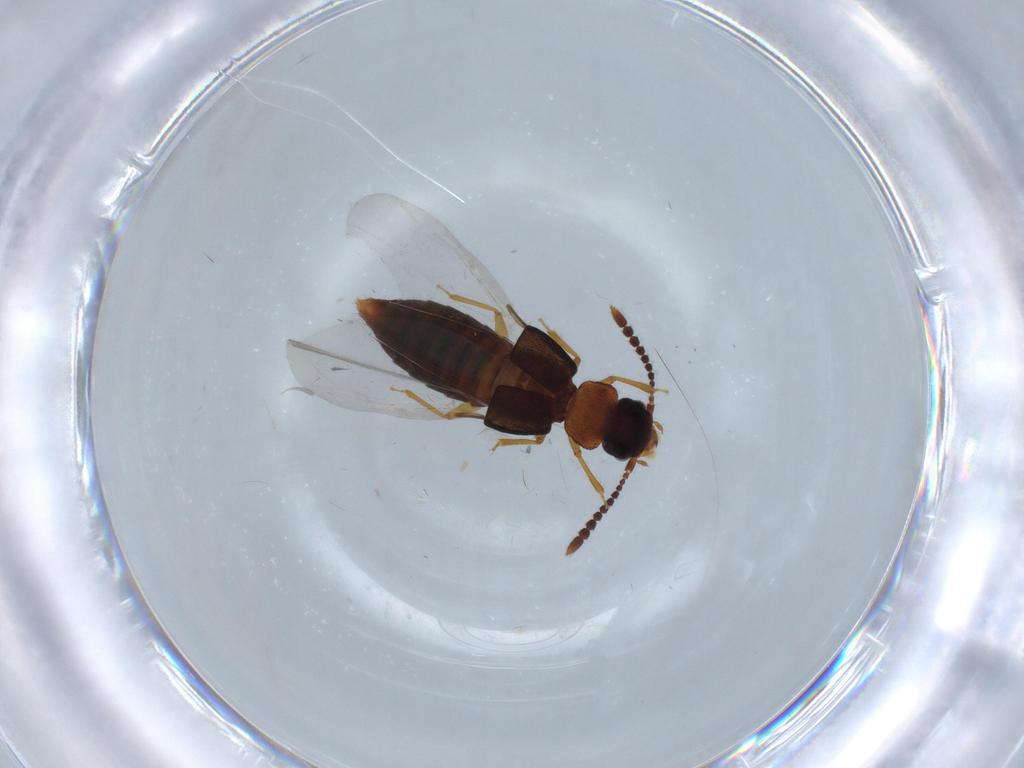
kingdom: Animalia
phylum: Arthropoda
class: Insecta
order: Coleoptera
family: Staphylinidae
